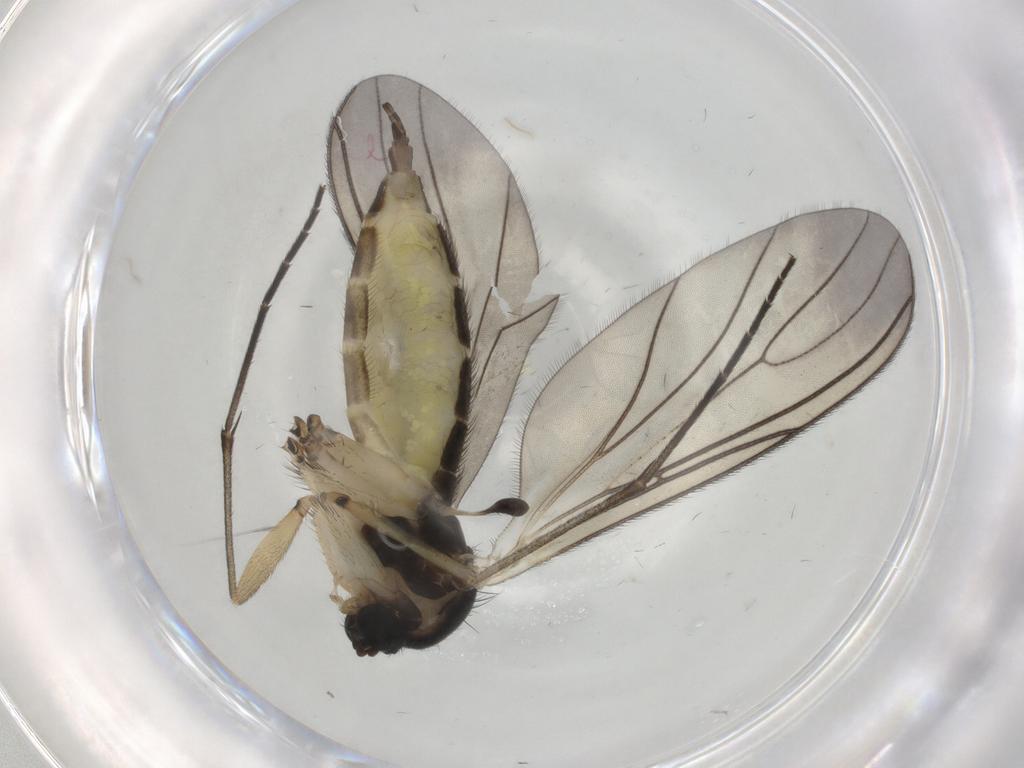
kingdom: Animalia
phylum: Arthropoda
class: Insecta
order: Diptera
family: Sciaridae
